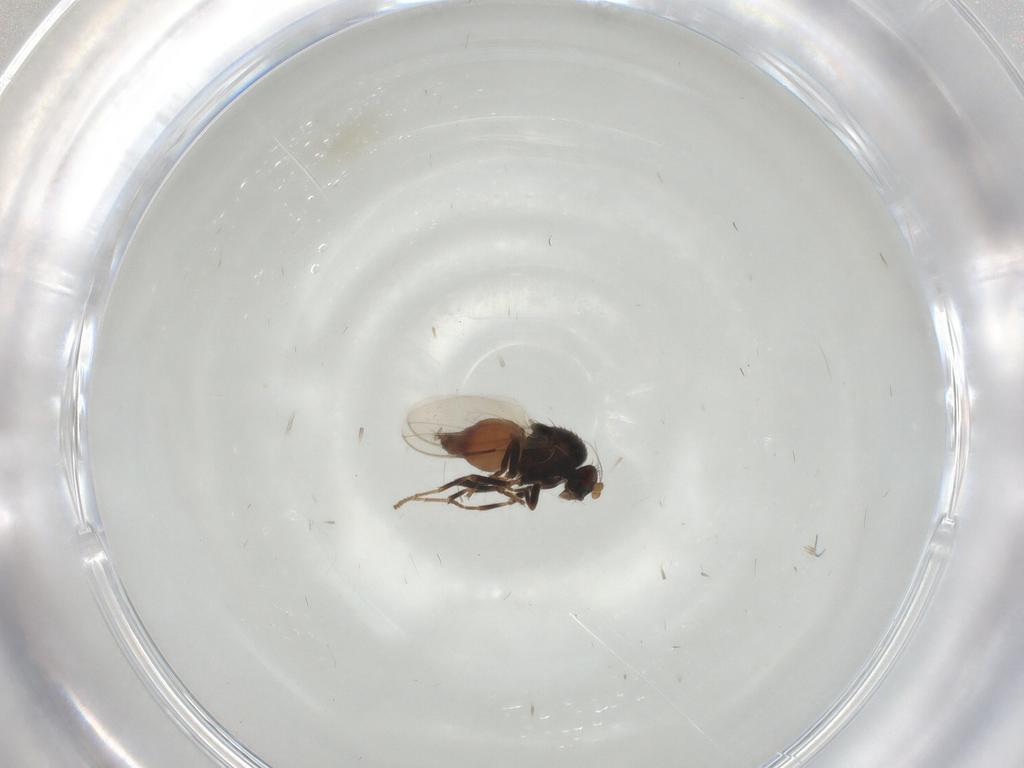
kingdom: Animalia
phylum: Arthropoda
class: Insecta
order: Diptera
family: Sphaeroceridae
